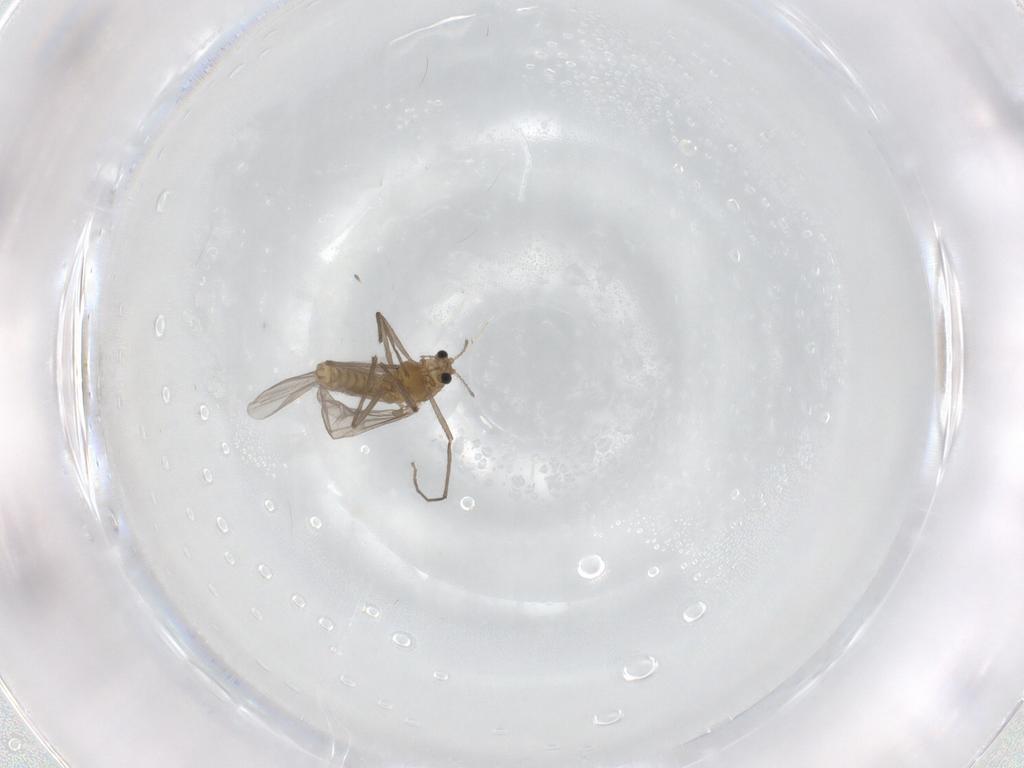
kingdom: Animalia
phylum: Arthropoda
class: Insecta
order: Diptera
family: Chironomidae
